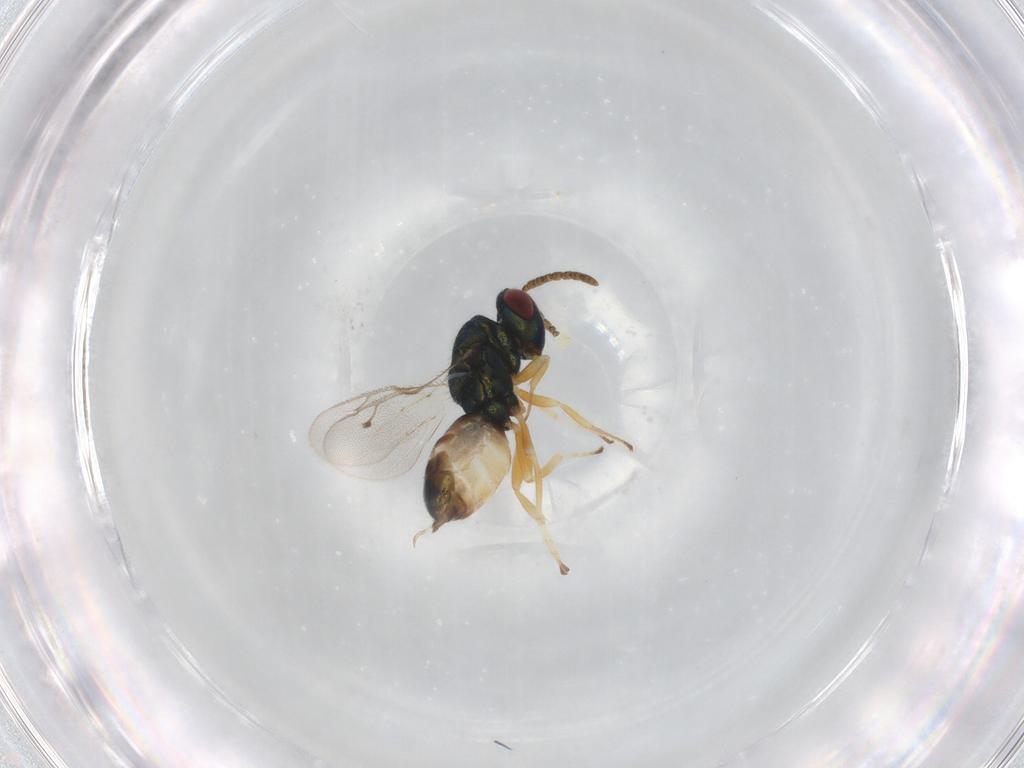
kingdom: Animalia
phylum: Arthropoda
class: Insecta
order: Hymenoptera
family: Pteromalidae
